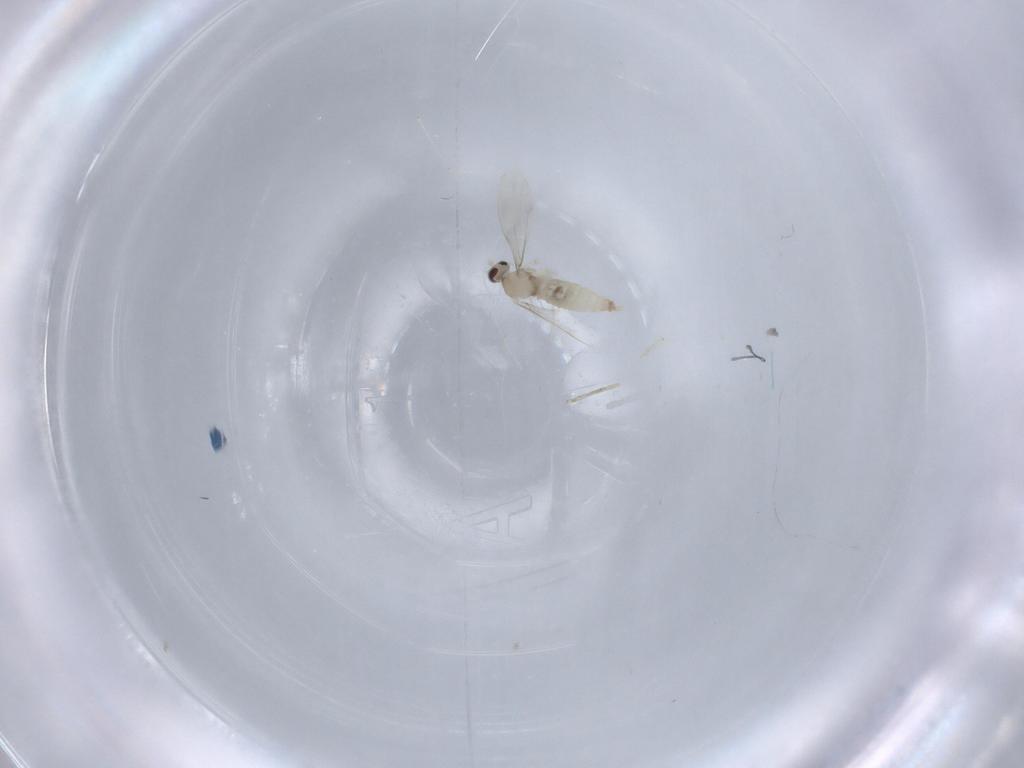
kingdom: Animalia
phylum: Arthropoda
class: Insecta
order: Diptera
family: Cecidomyiidae
